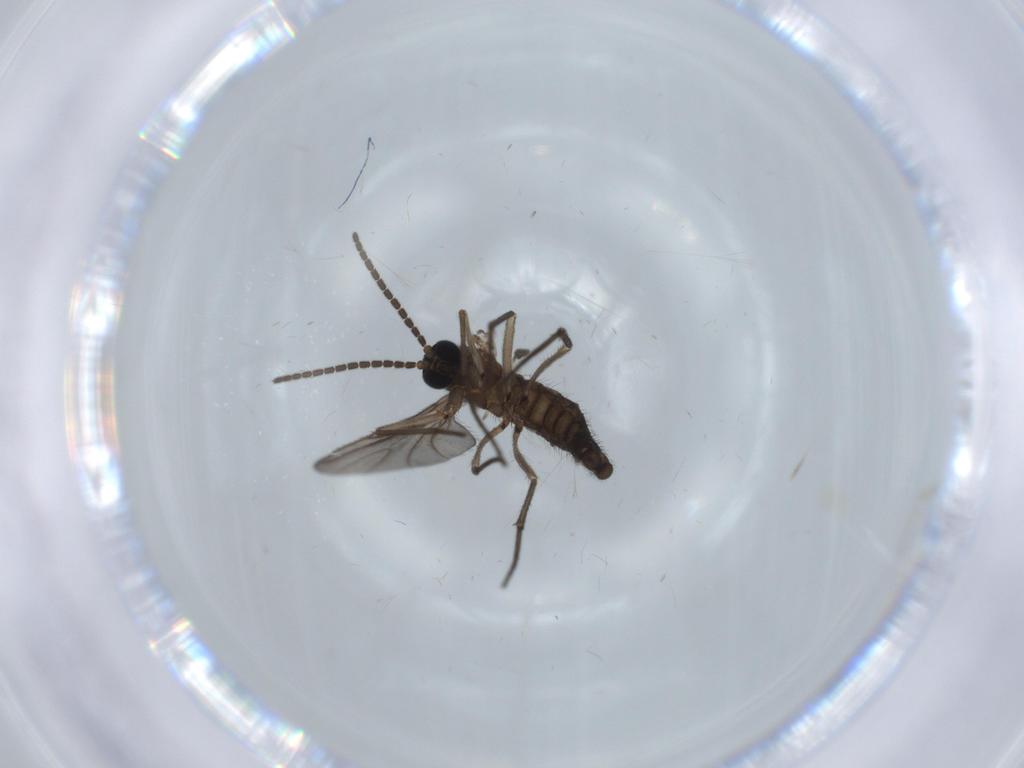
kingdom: Animalia
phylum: Arthropoda
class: Insecta
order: Diptera
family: Sciaridae
